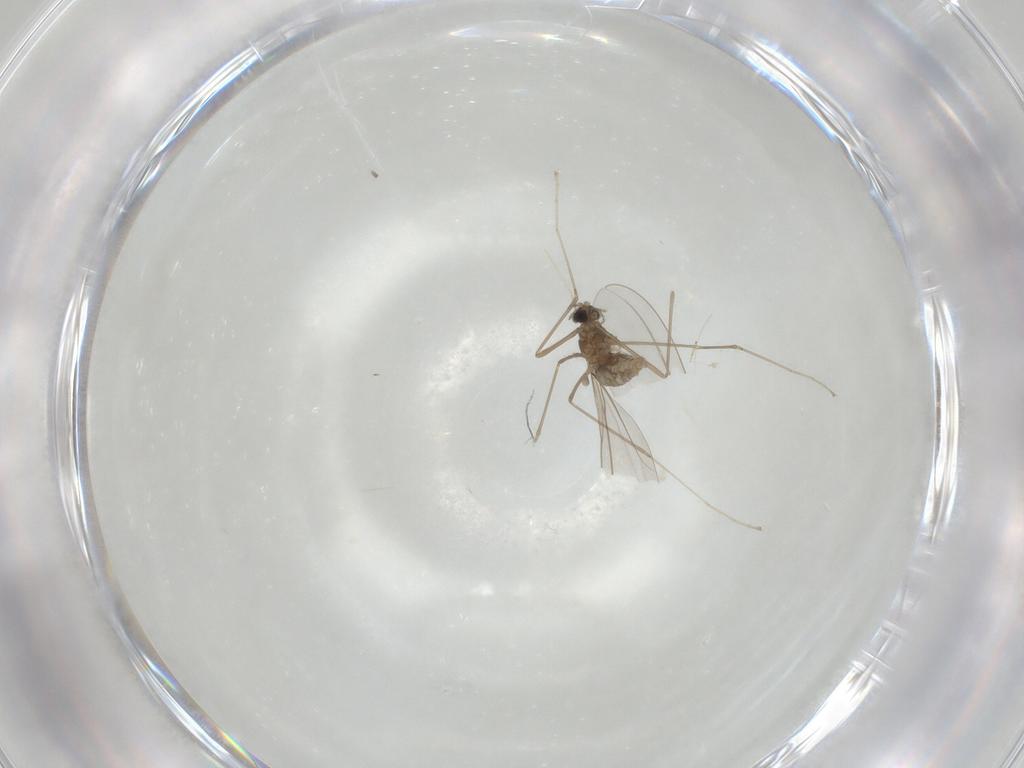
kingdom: Animalia
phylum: Arthropoda
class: Insecta
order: Diptera
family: Cecidomyiidae
